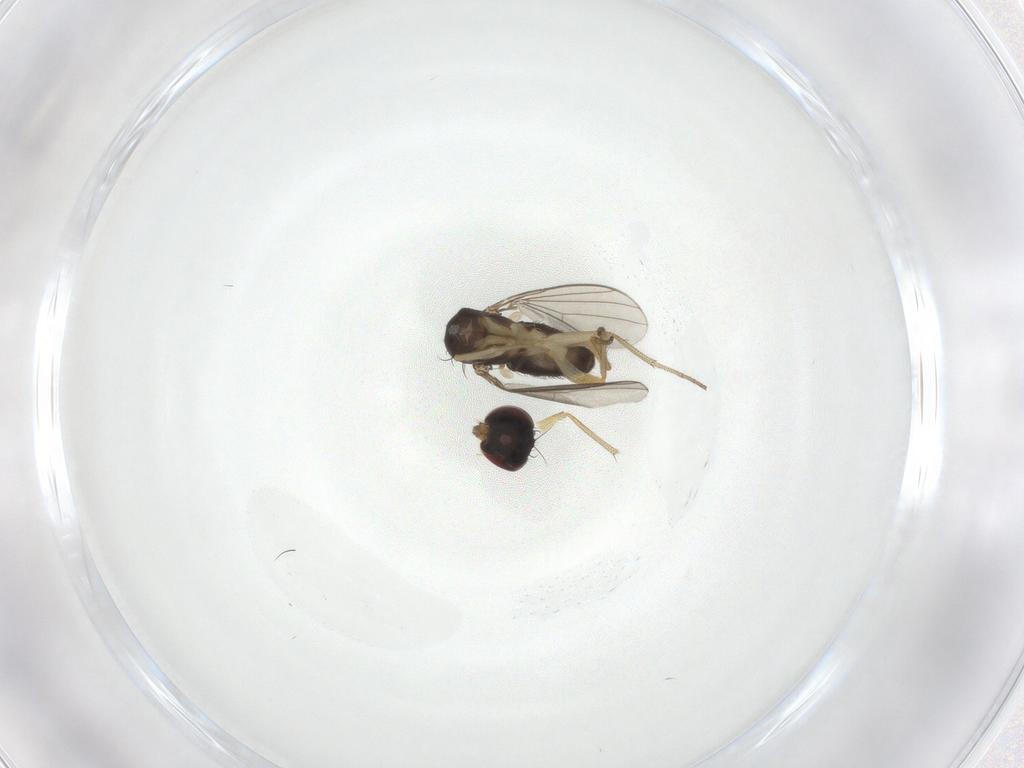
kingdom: Animalia
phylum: Arthropoda
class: Insecta
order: Diptera
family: Dolichopodidae
